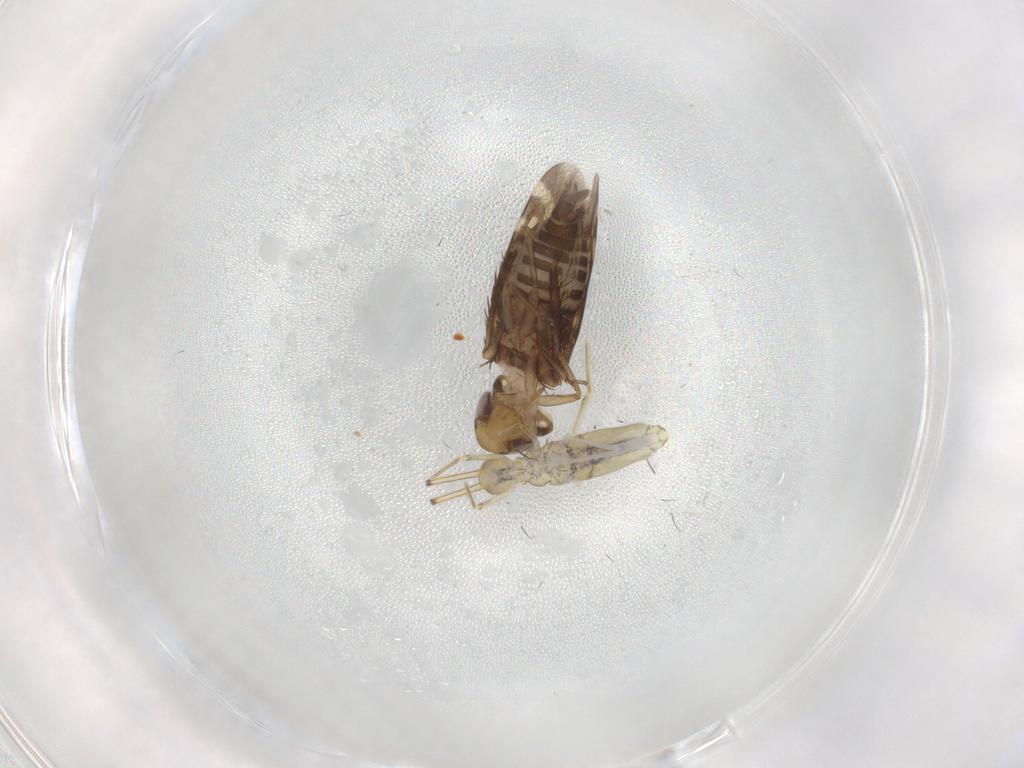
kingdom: Animalia
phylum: Arthropoda
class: Insecta
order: Hemiptera
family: Cicadellidae
